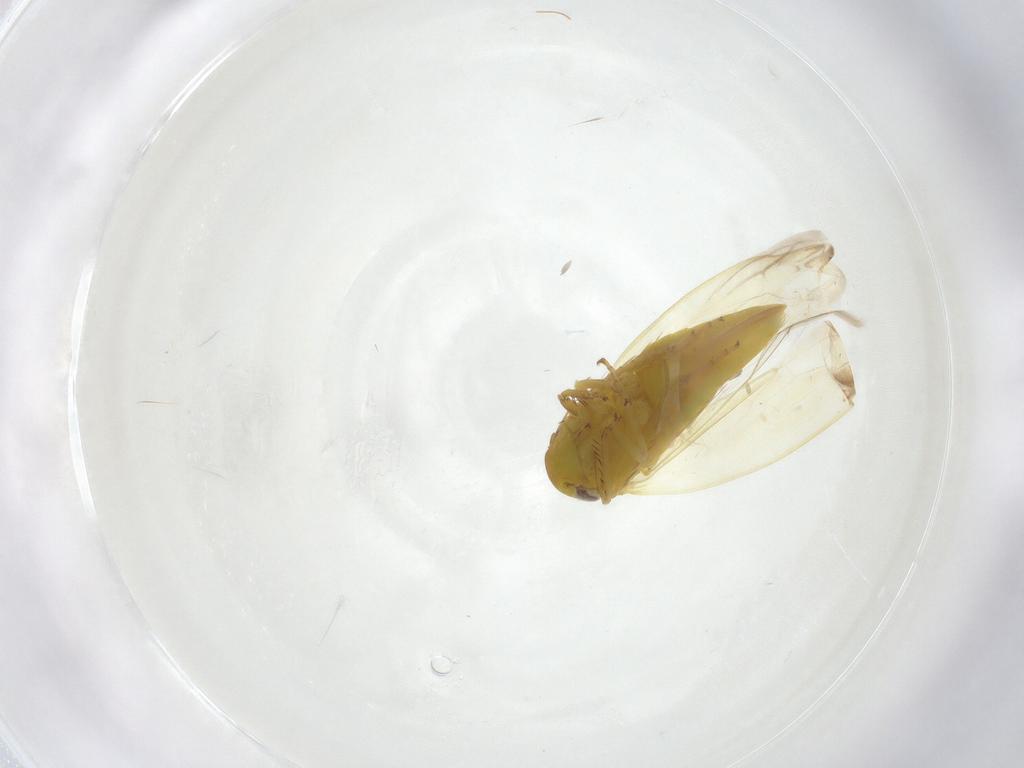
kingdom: Animalia
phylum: Arthropoda
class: Insecta
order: Hemiptera
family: Cicadellidae
